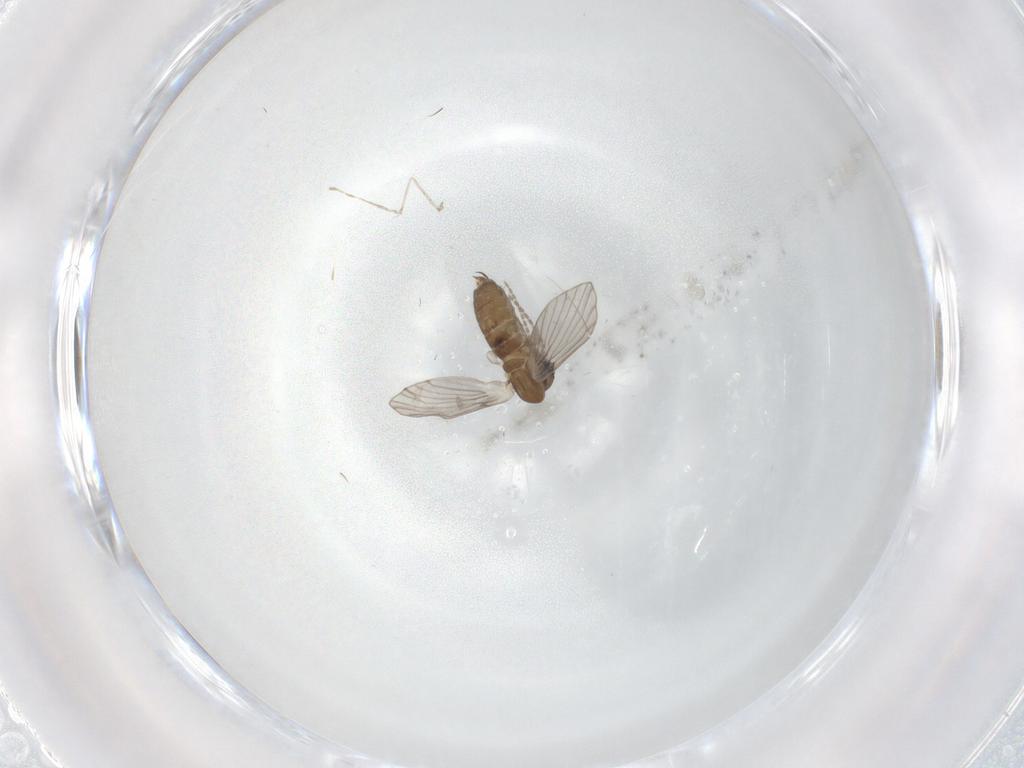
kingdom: Animalia
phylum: Arthropoda
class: Insecta
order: Diptera
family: Cecidomyiidae
